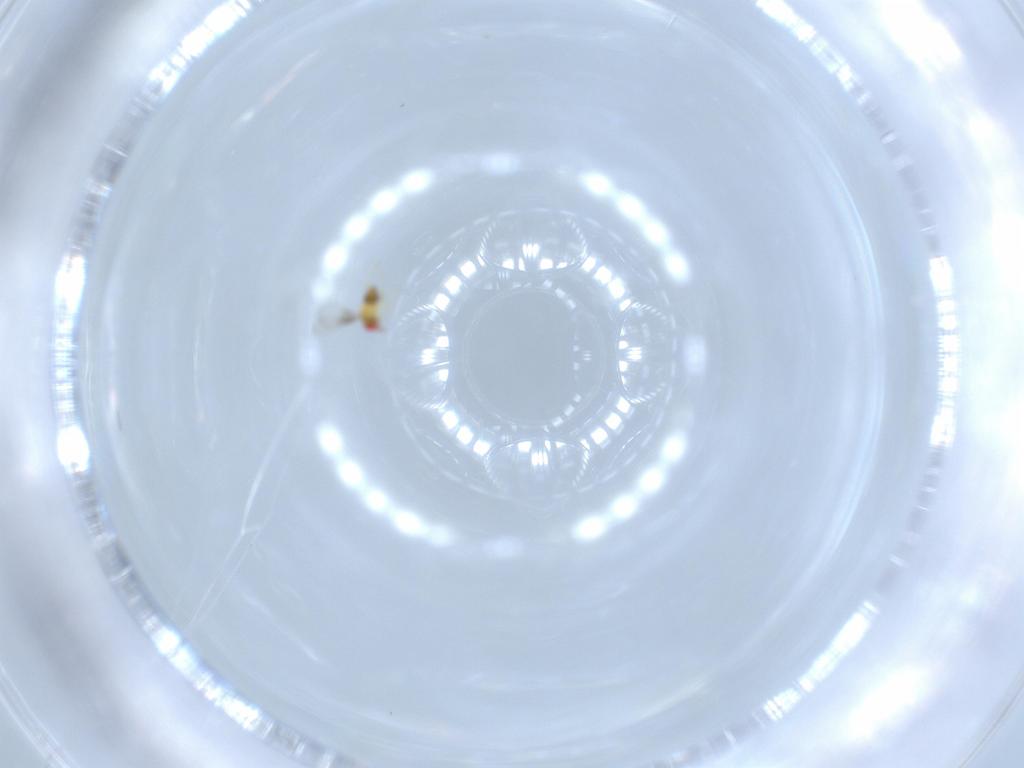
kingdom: Animalia
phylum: Arthropoda
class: Insecta
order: Hymenoptera
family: Trichogrammatidae
